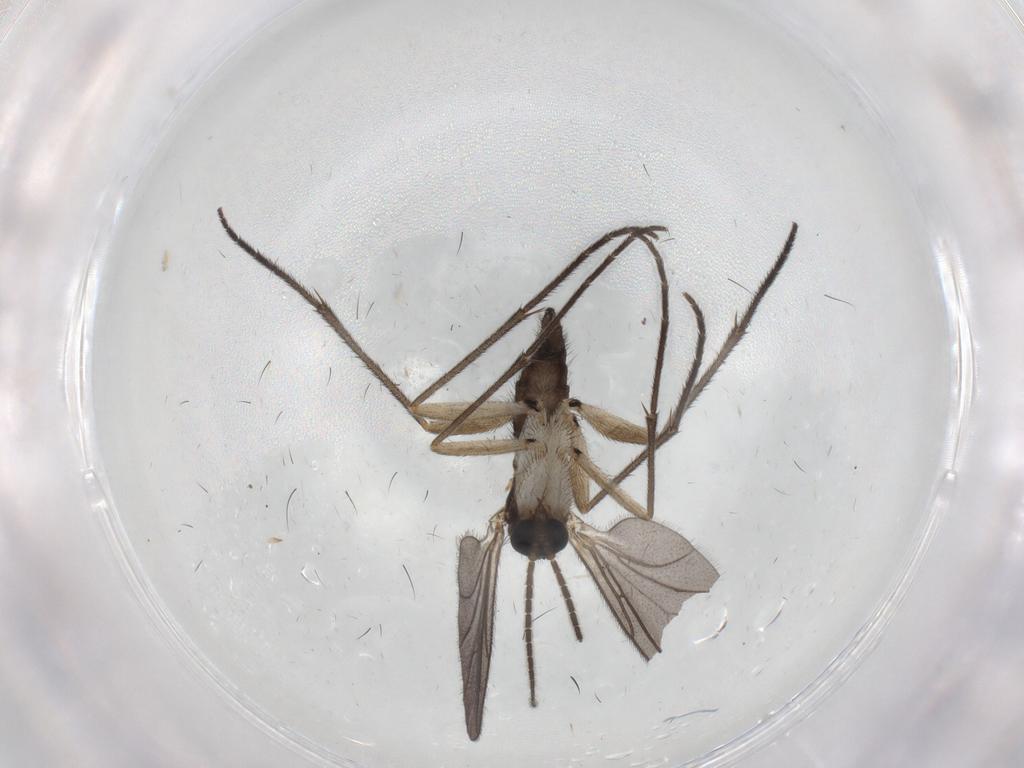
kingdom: Animalia
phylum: Arthropoda
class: Insecta
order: Diptera
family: Sciaridae
